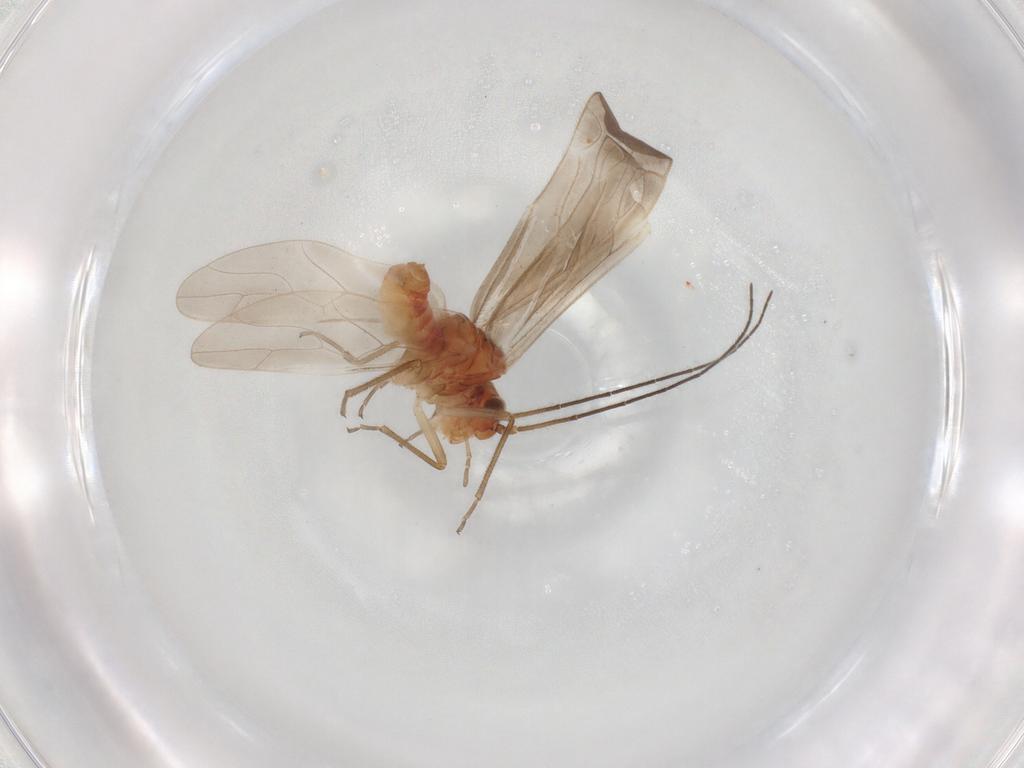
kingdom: Animalia
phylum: Arthropoda
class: Insecta
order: Psocodea
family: Caeciliusidae
